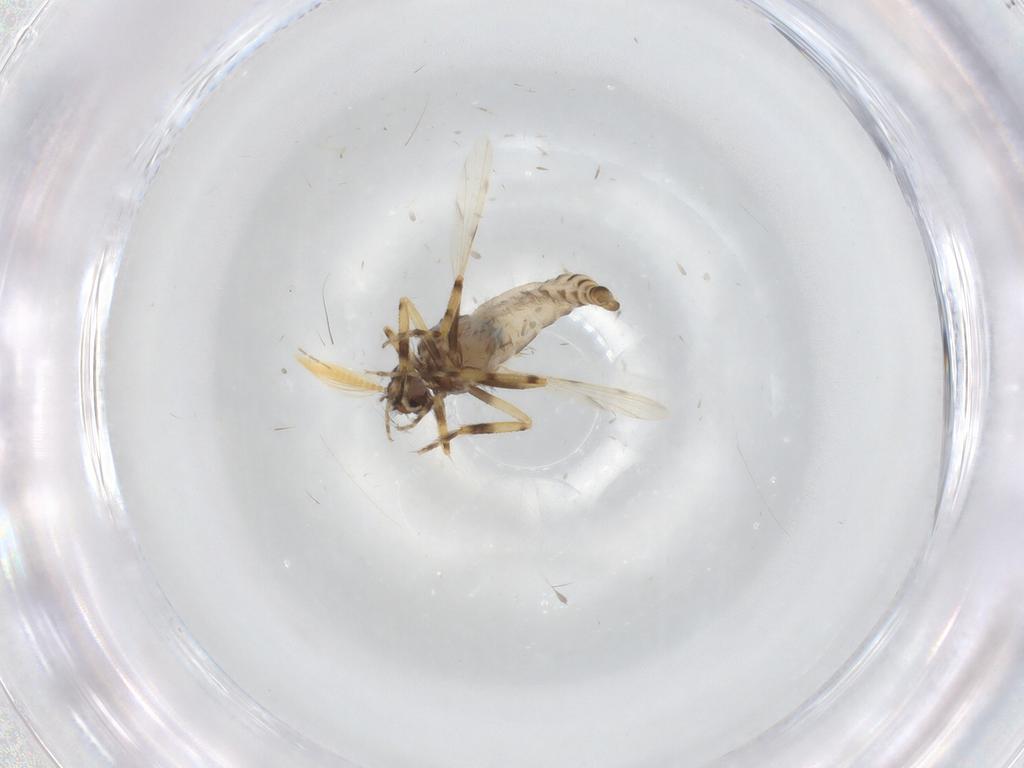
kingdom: Animalia
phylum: Arthropoda
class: Insecta
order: Diptera
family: Ceratopogonidae
